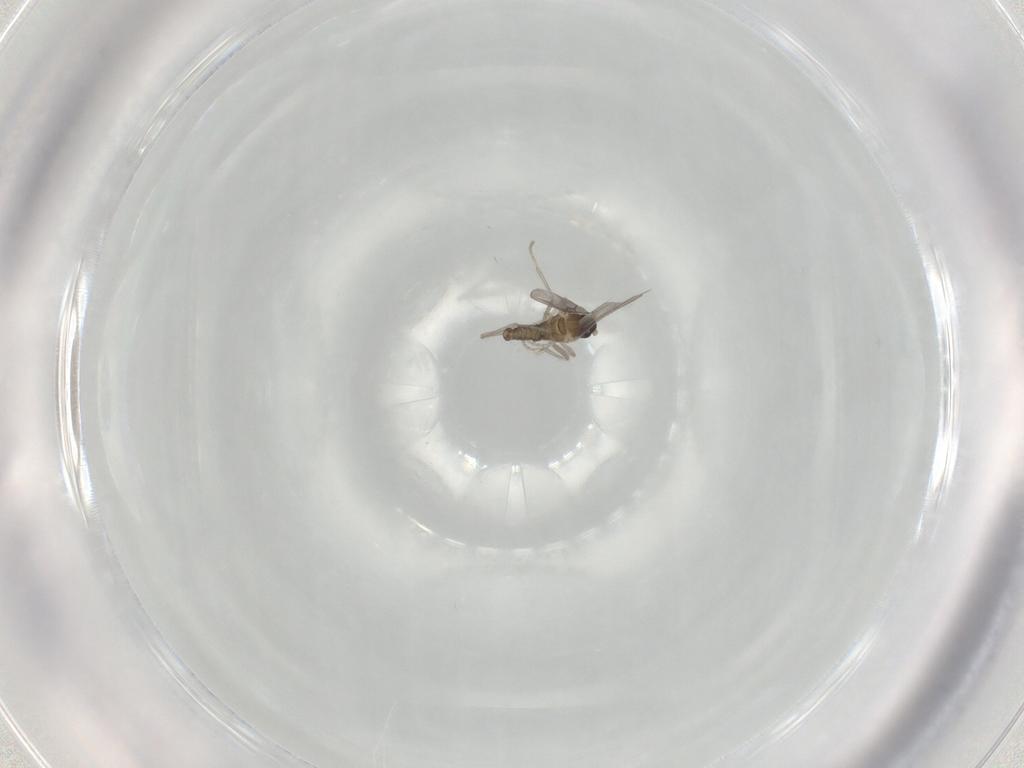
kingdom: Animalia
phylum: Arthropoda
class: Insecta
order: Diptera
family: Cecidomyiidae
